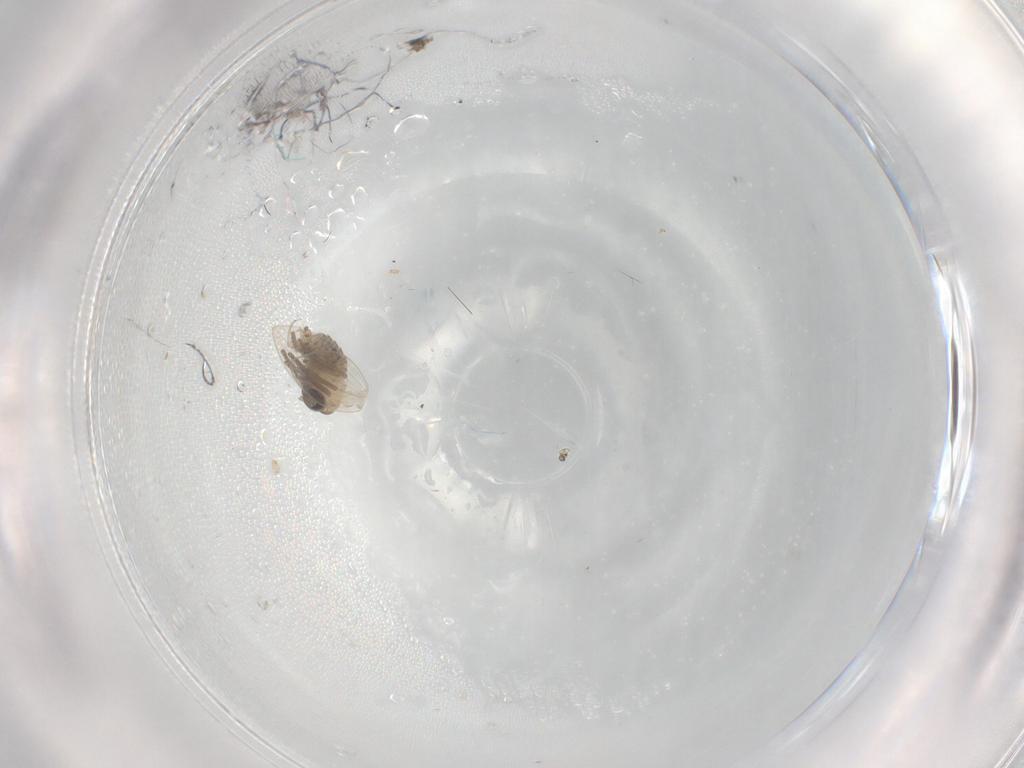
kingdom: Animalia
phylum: Arthropoda
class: Insecta
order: Diptera
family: Psychodidae
